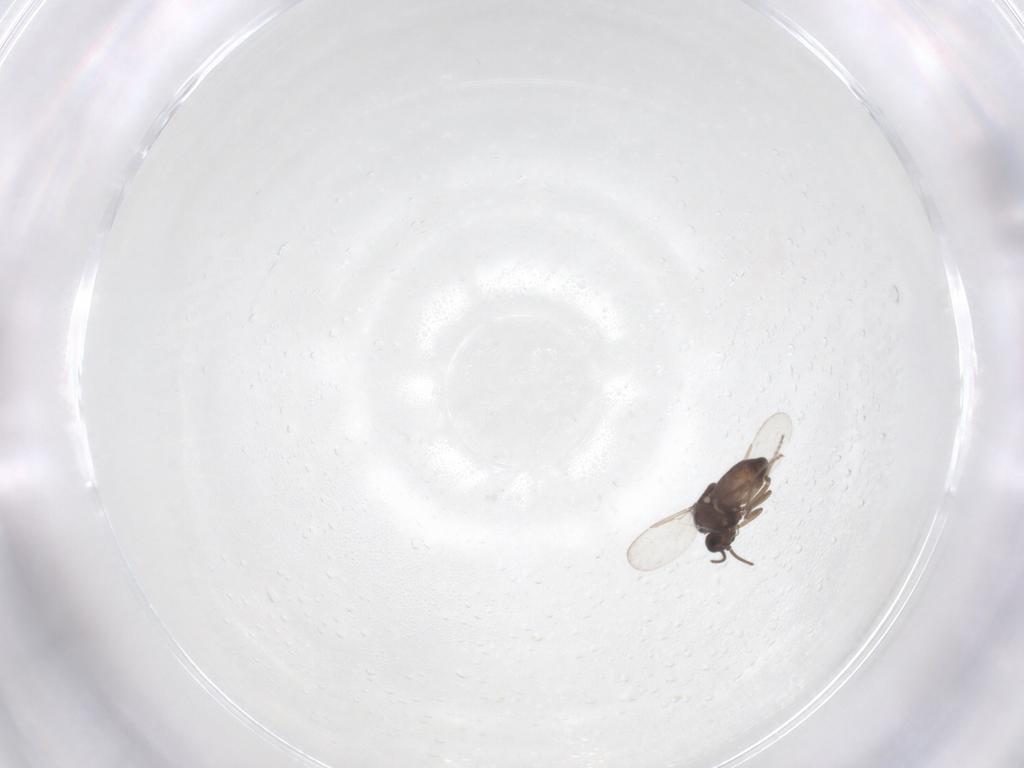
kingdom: Animalia
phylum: Arthropoda
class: Insecta
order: Diptera
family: Ceratopogonidae
